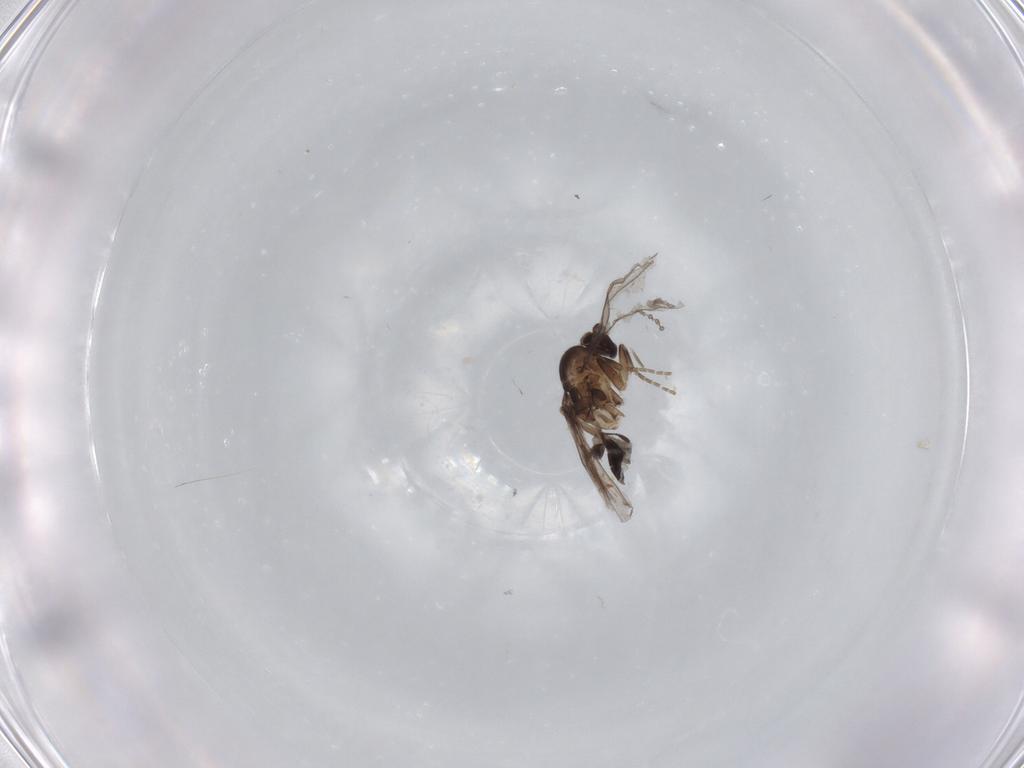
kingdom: Animalia
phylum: Arthropoda
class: Insecta
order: Diptera
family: Chironomidae
